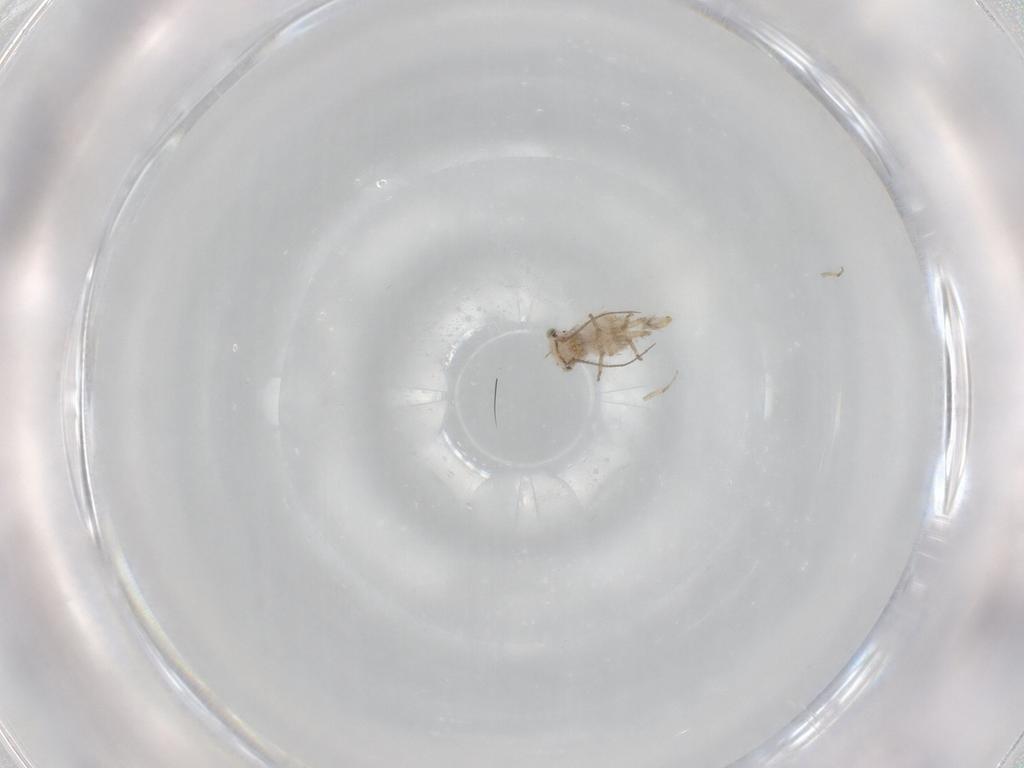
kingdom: Animalia
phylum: Arthropoda
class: Insecta
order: Psocodea
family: Lepidopsocidae
